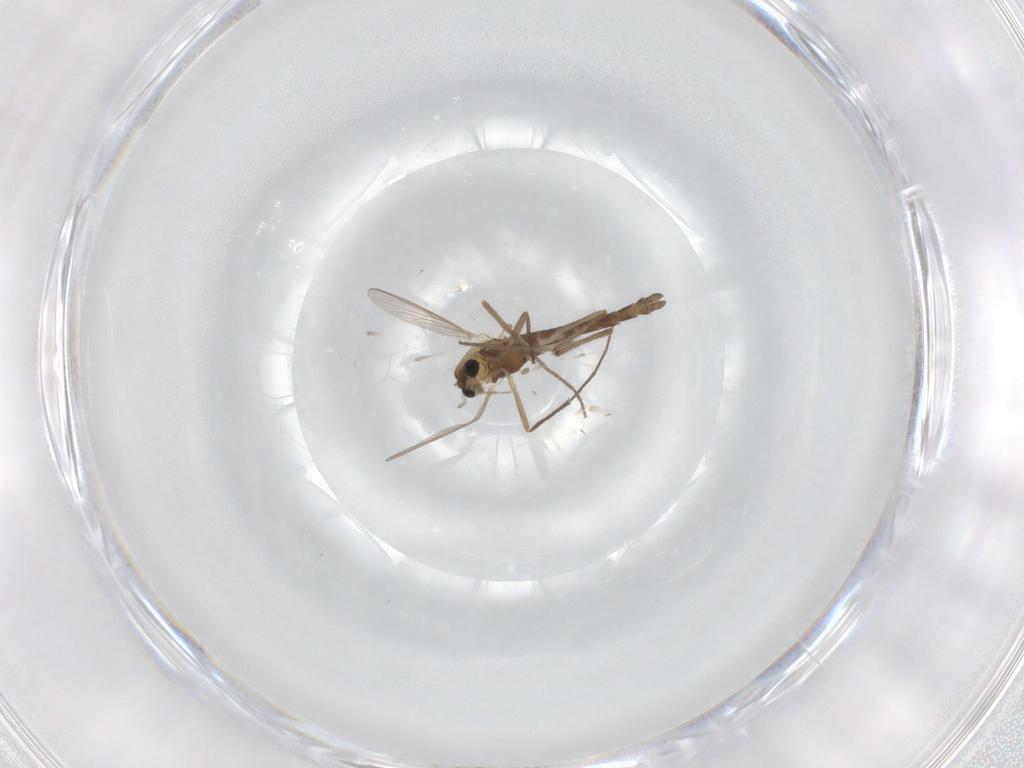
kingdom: Animalia
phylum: Arthropoda
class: Insecta
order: Diptera
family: Chironomidae
